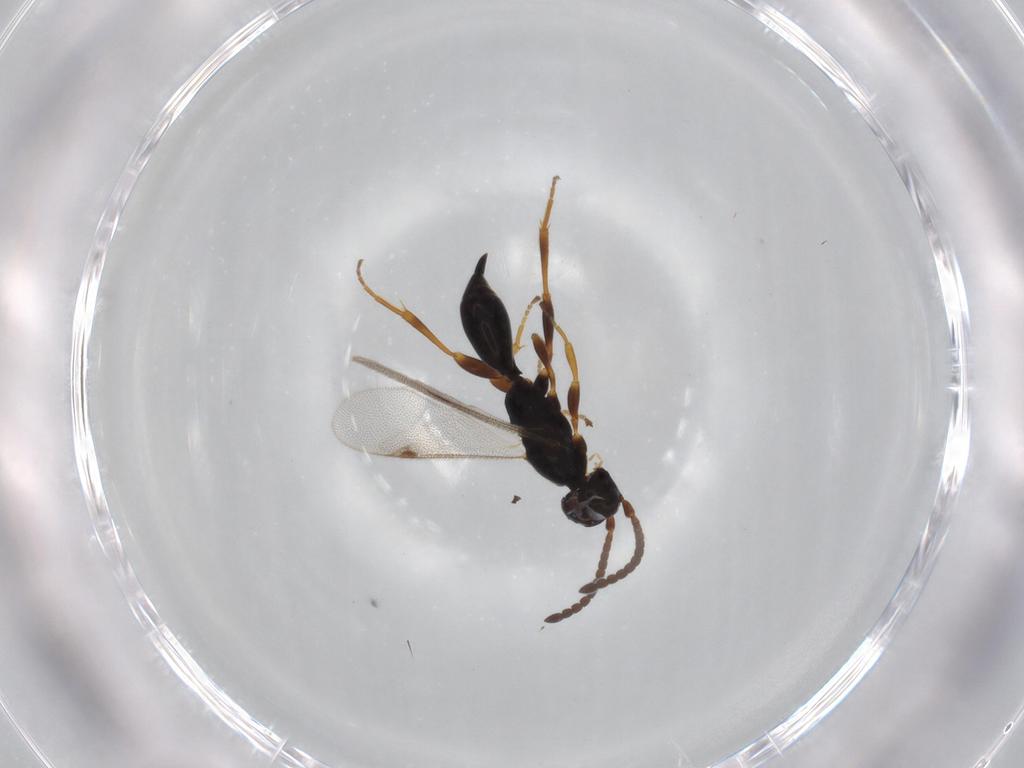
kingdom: Animalia
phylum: Arthropoda
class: Insecta
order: Hymenoptera
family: Proctotrupidae
